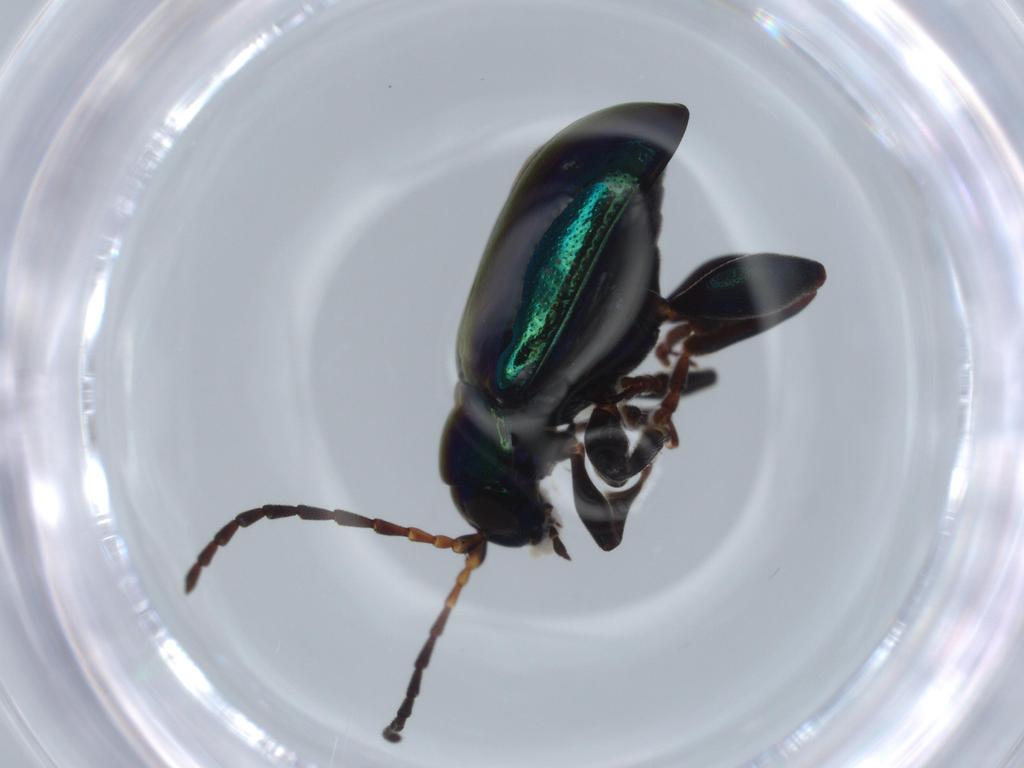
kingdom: Animalia
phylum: Arthropoda
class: Insecta
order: Coleoptera
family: Chrysomelidae
